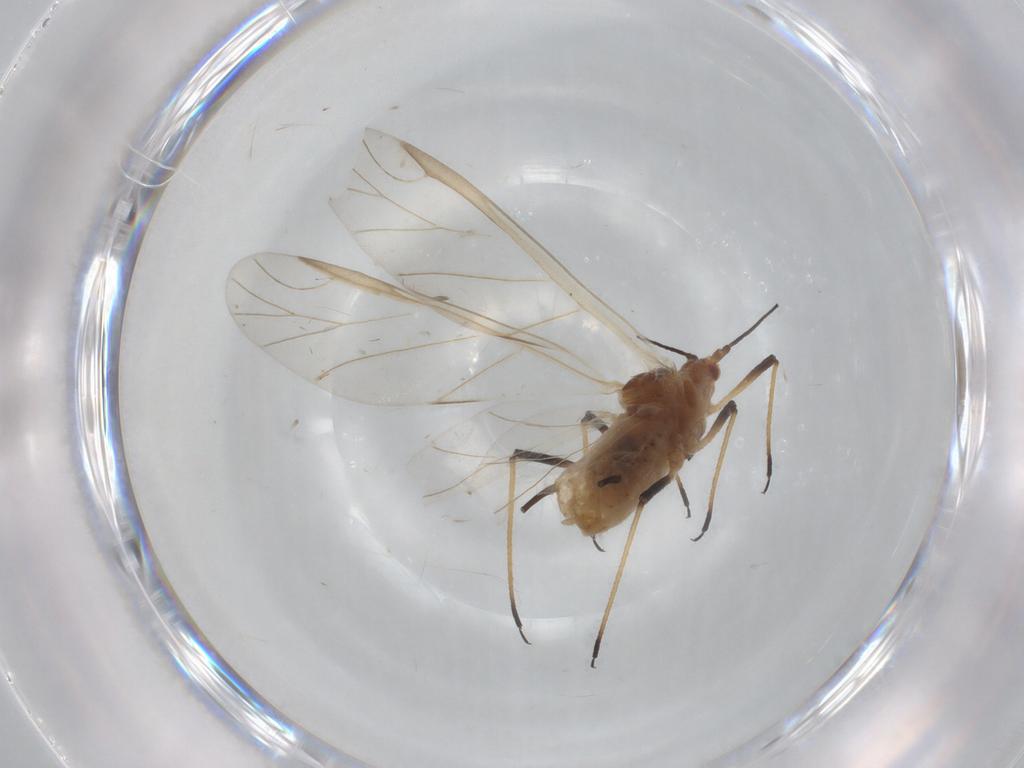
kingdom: Animalia
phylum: Arthropoda
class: Insecta
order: Hemiptera
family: Aphididae
